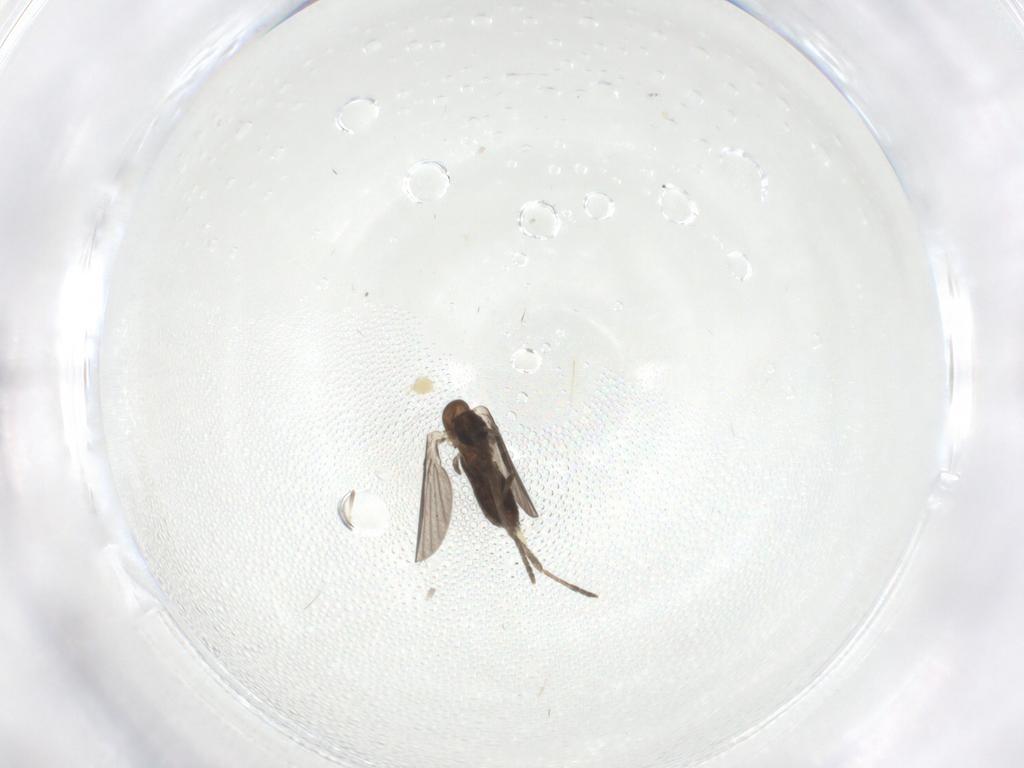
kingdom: Animalia
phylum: Arthropoda
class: Insecta
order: Diptera
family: Cecidomyiidae
